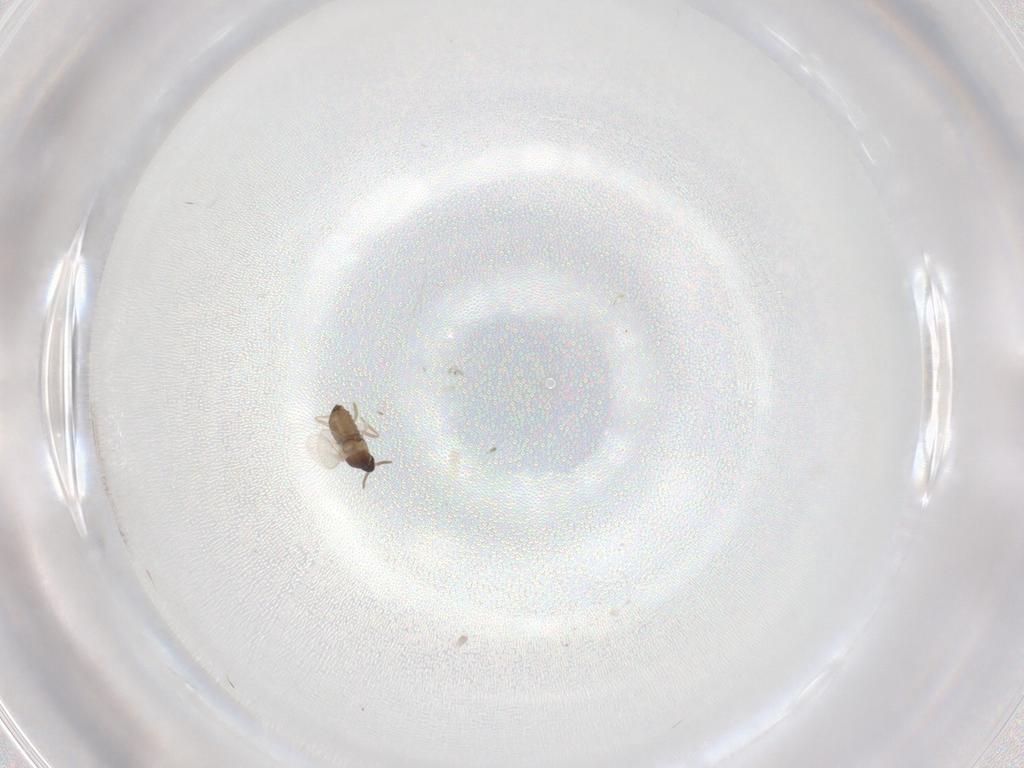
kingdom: Animalia
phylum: Arthropoda
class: Insecta
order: Diptera
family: Cecidomyiidae
